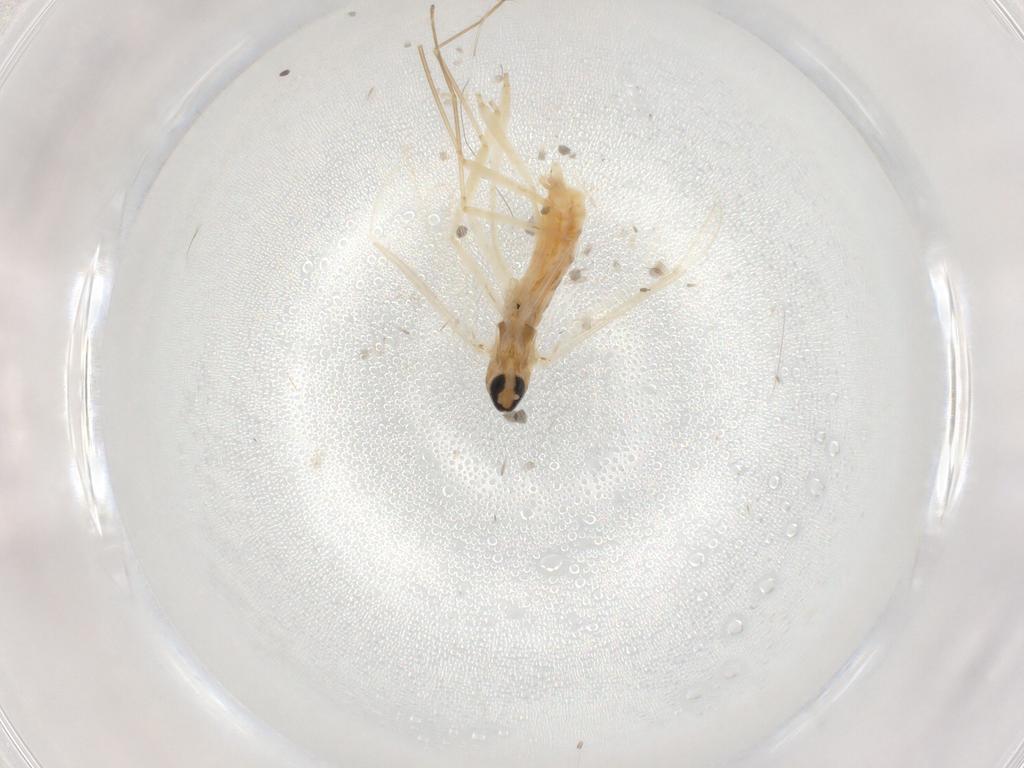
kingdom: Animalia
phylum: Arthropoda
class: Insecta
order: Diptera
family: Cecidomyiidae
